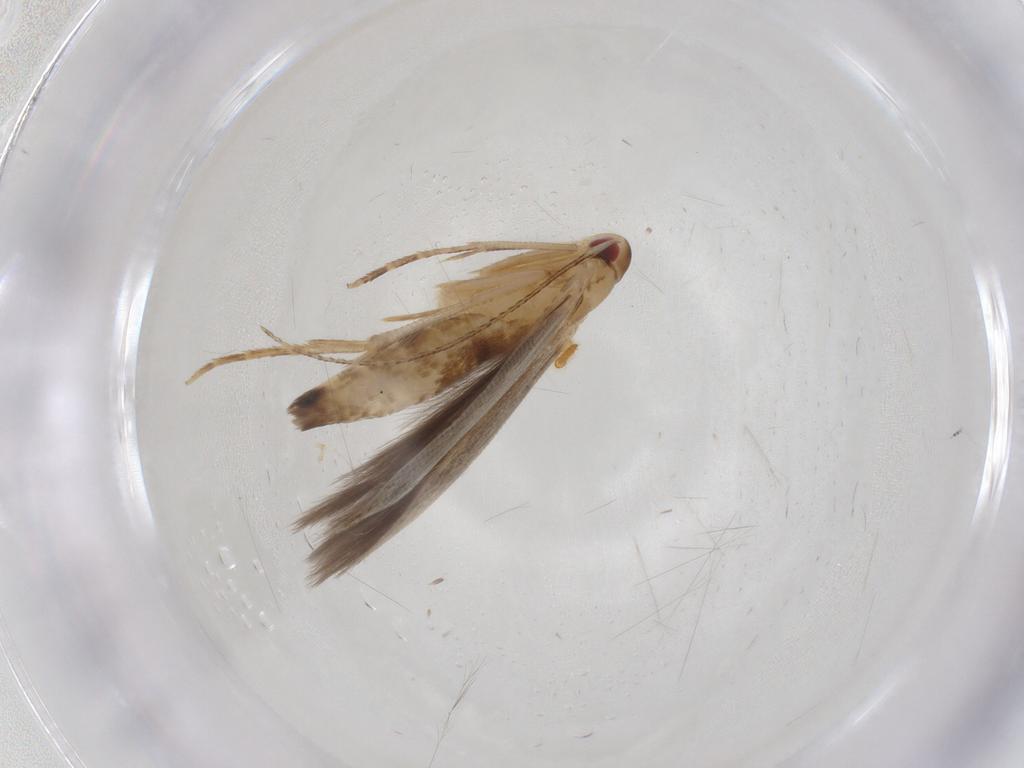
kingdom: Animalia
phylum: Arthropoda
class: Insecta
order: Lepidoptera
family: Cosmopterigidae
